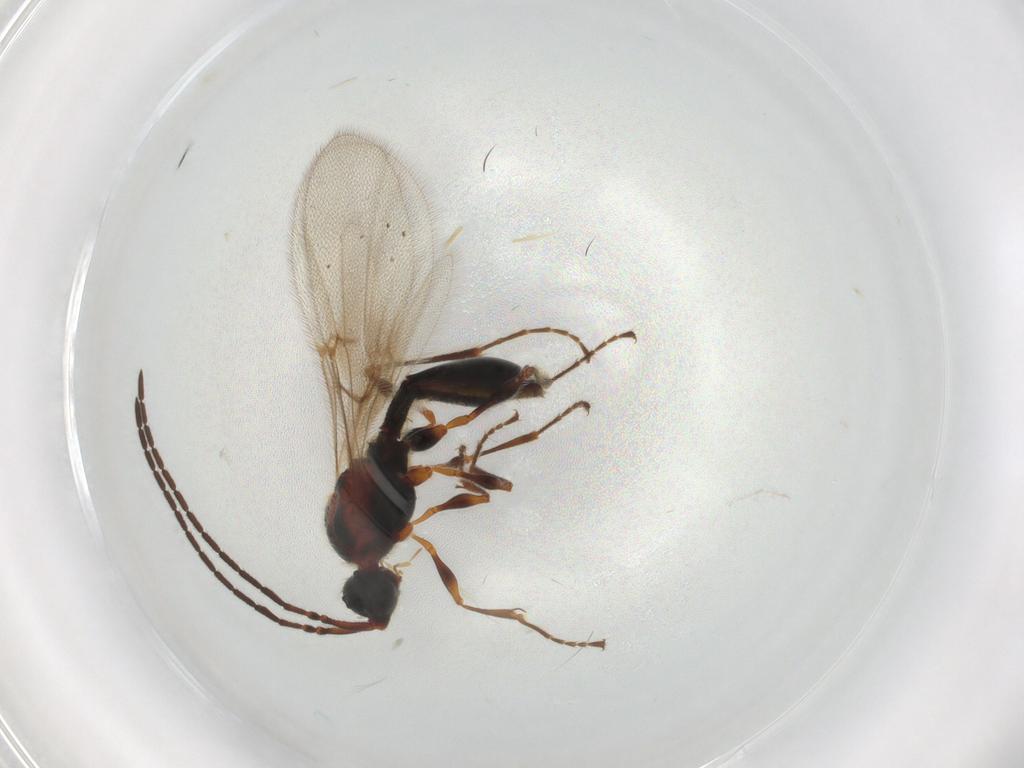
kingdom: Animalia
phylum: Arthropoda
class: Insecta
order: Hymenoptera
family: Diapriidae
